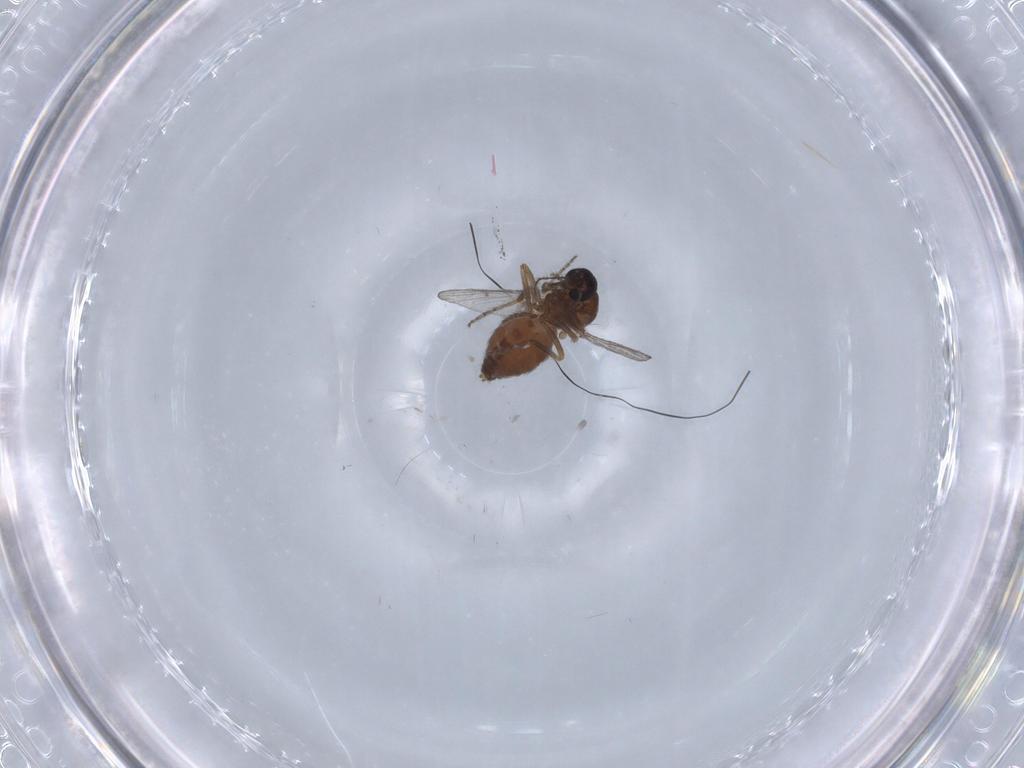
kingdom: Animalia
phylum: Arthropoda
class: Insecta
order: Diptera
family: Ceratopogonidae
